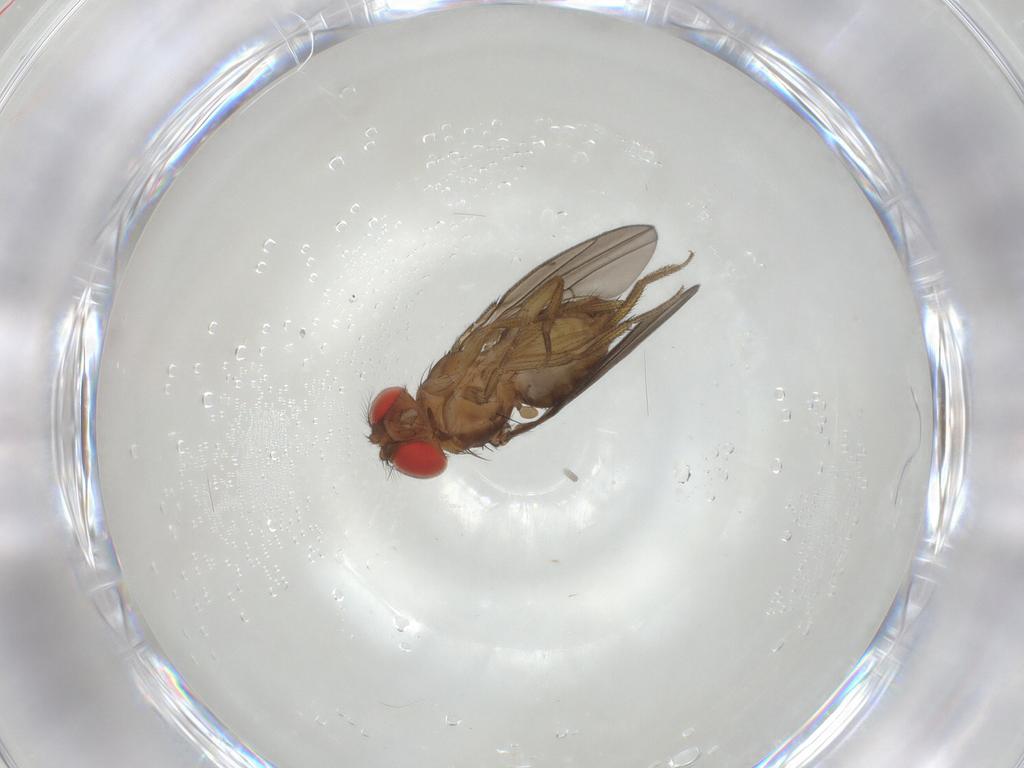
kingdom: Animalia
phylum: Arthropoda
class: Insecta
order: Diptera
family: Drosophilidae
